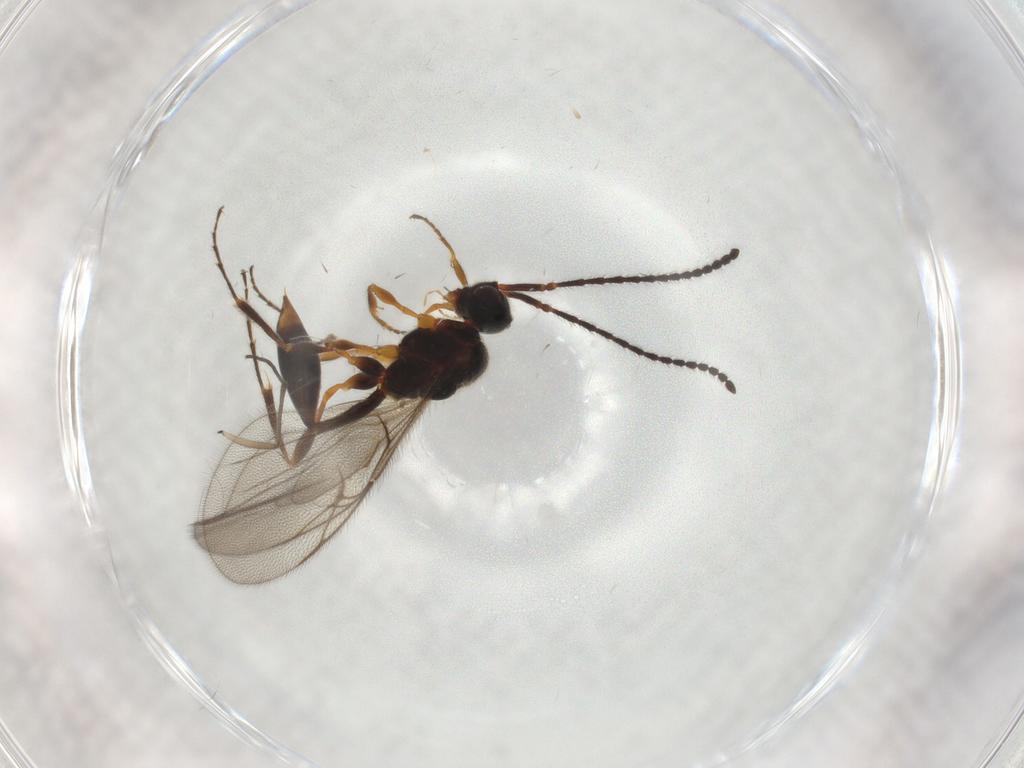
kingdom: Animalia
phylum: Arthropoda
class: Insecta
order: Hymenoptera
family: Diapriidae
